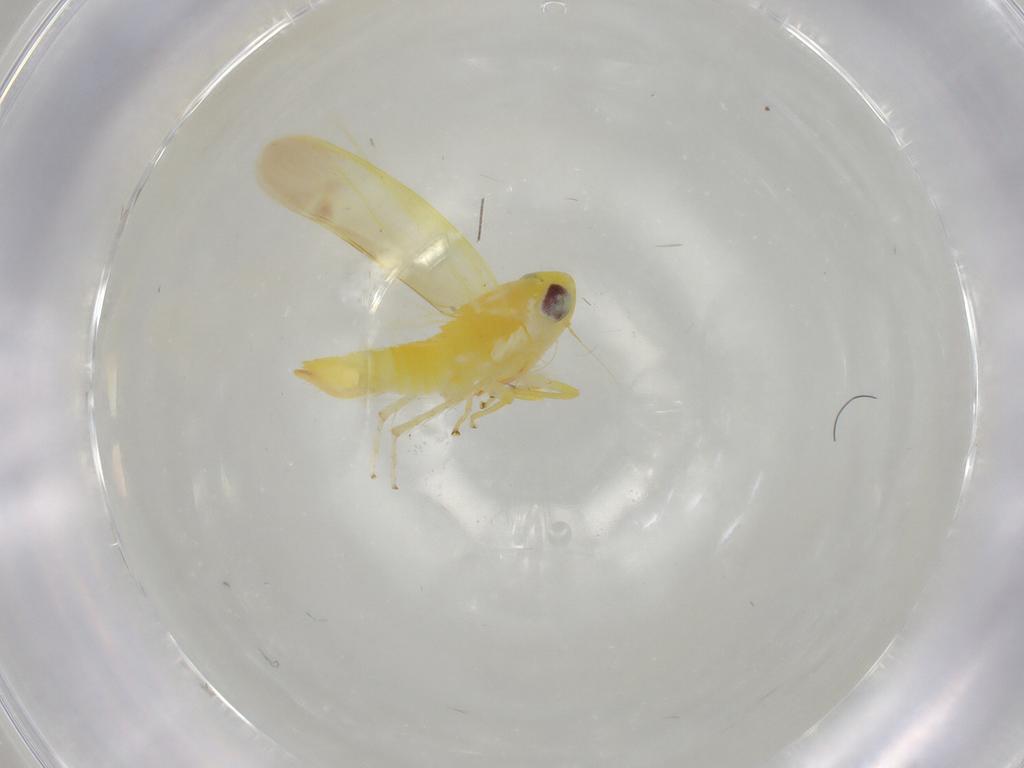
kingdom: Animalia
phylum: Arthropoda
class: Insecta
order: Hemiptera
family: Cicadellidae
